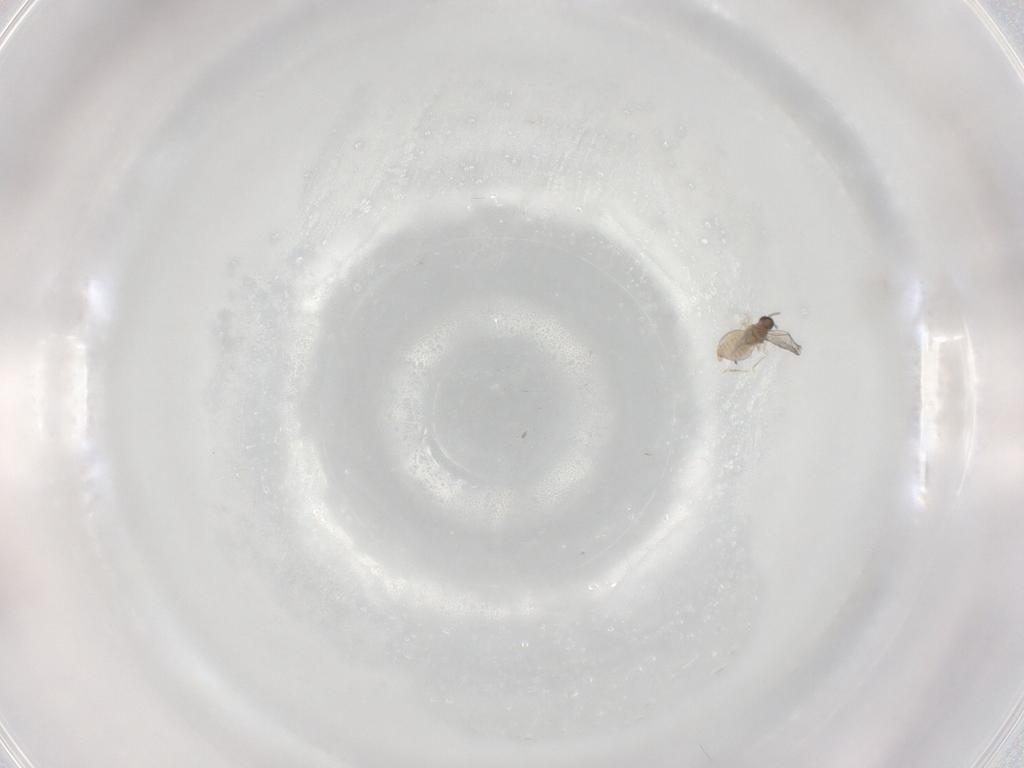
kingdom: Animalia
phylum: Arthropoda
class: Insecta
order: Diptera
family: Cecidomyiidae
